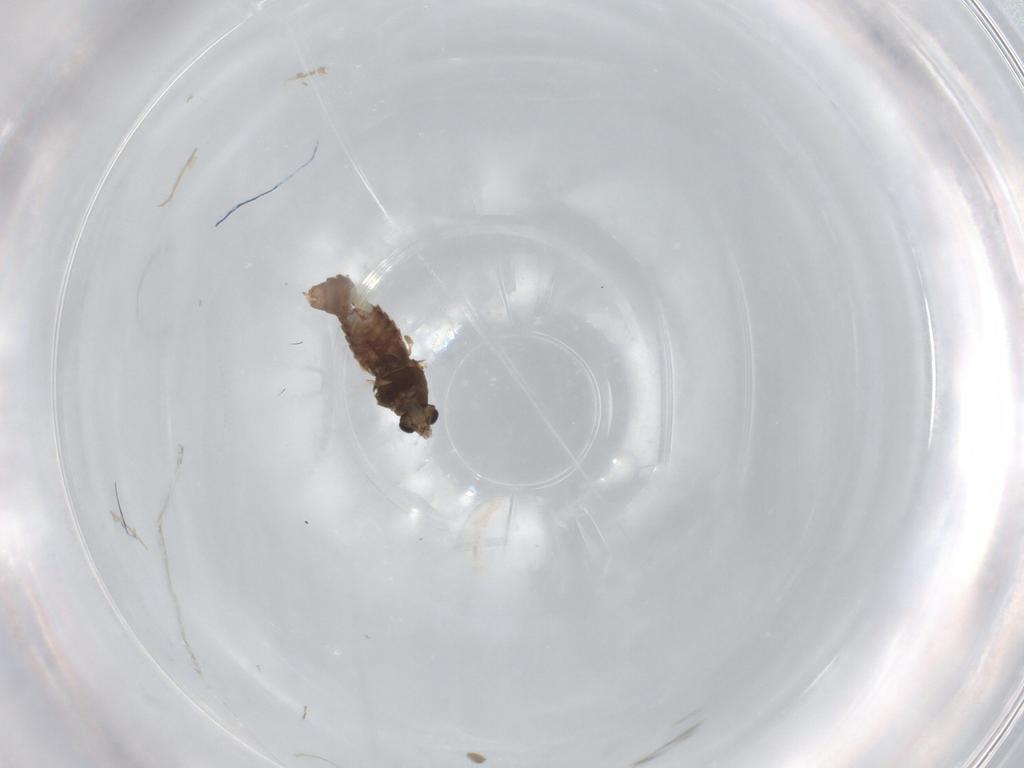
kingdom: Animalia
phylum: Arthropoda
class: Insecta
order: Diptera
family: Chironomidae
